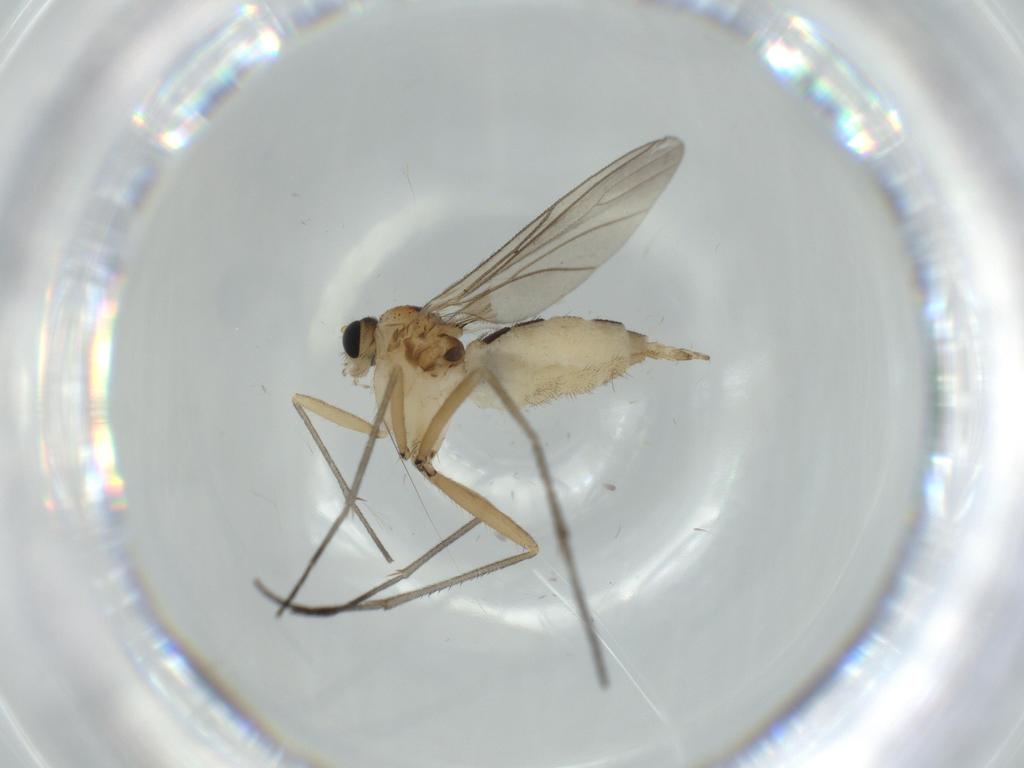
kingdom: Animalia
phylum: Arthropoda
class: Insecta
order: Diptera
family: Sciaridae
